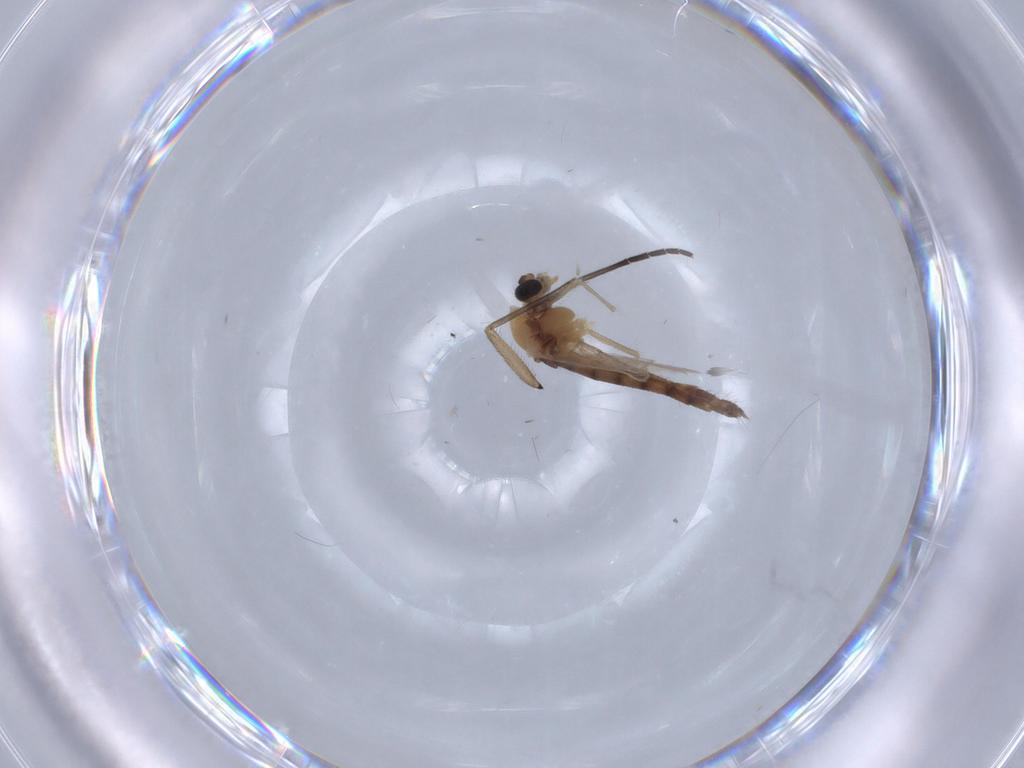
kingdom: Animalia
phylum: Arthropoda
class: Insecta
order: Diptera
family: Chironomidae
